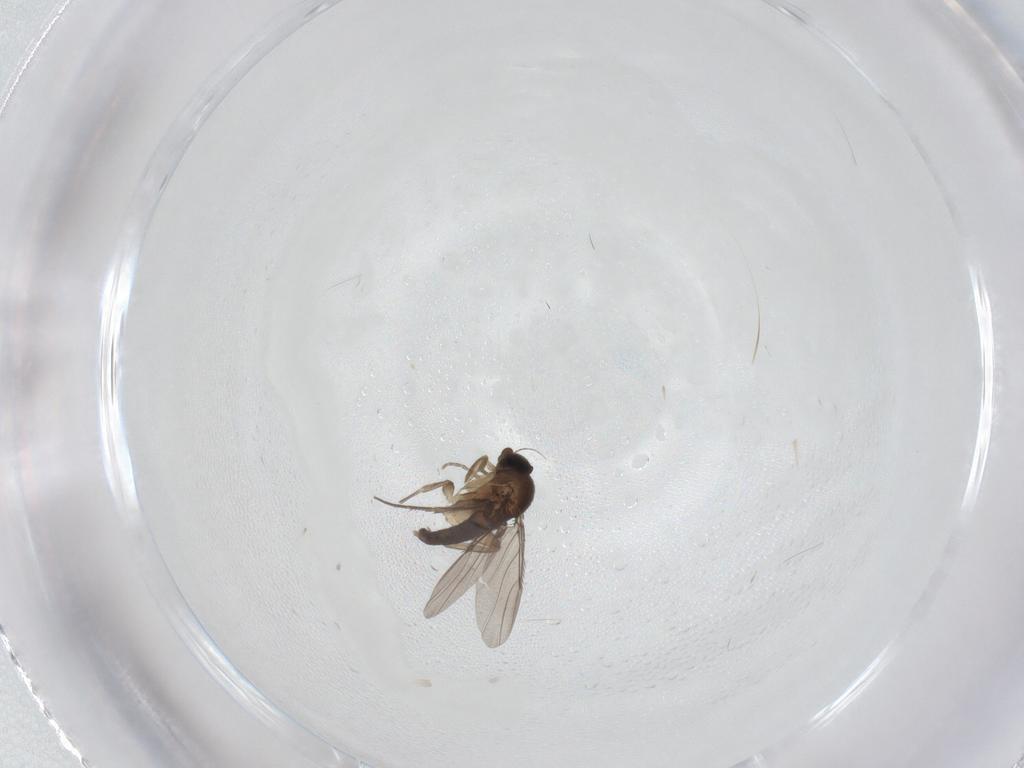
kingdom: Animalia
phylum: Arthropoda
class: Insecta
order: Diptera
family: Phoridae
